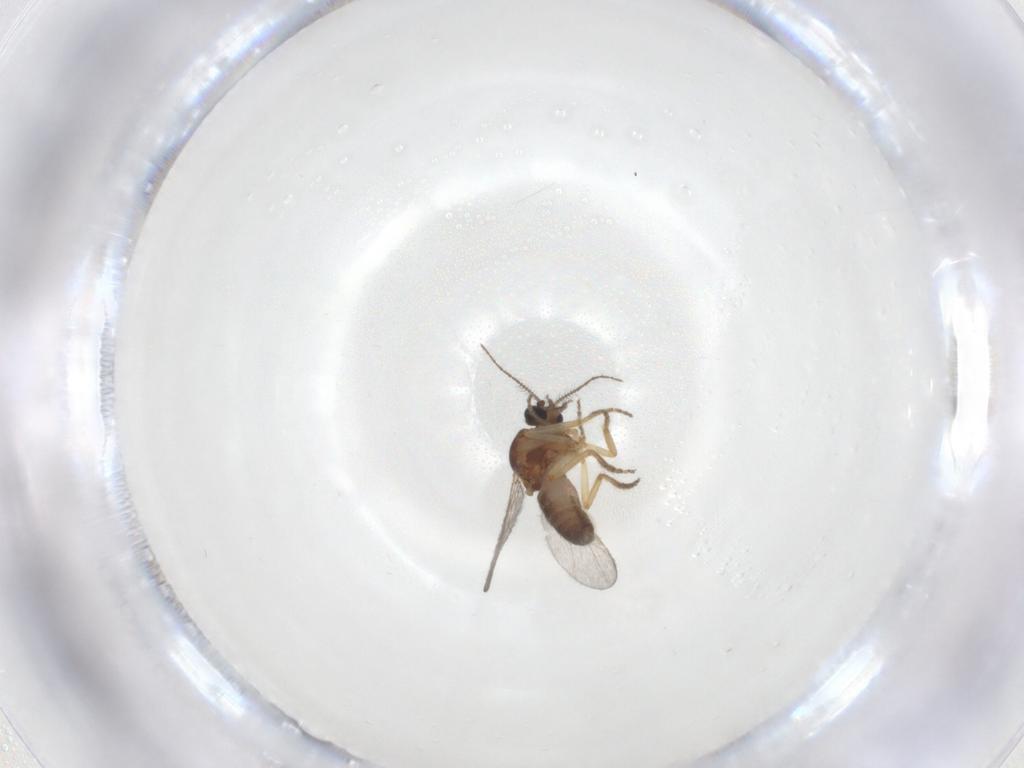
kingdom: Animalia
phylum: Arthropoda
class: Insecta
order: Diptera
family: Ceratopogonidae
